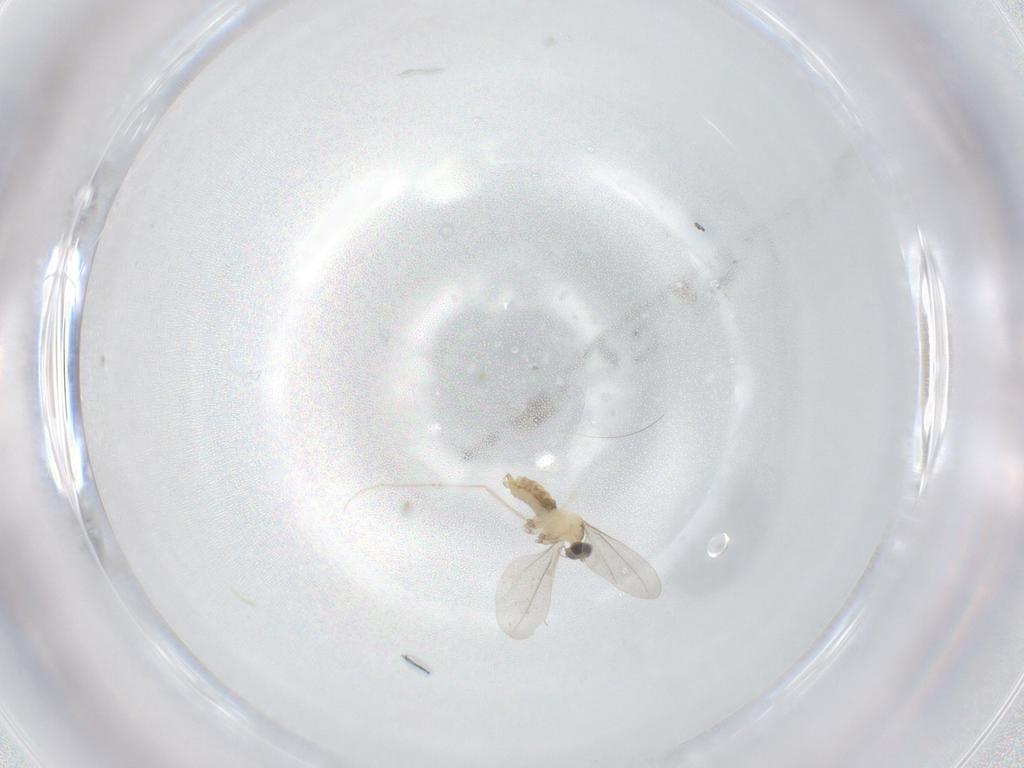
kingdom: Animalia
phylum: Arthropoda
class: Insecta
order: Diptera
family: Cecidomyiidae
